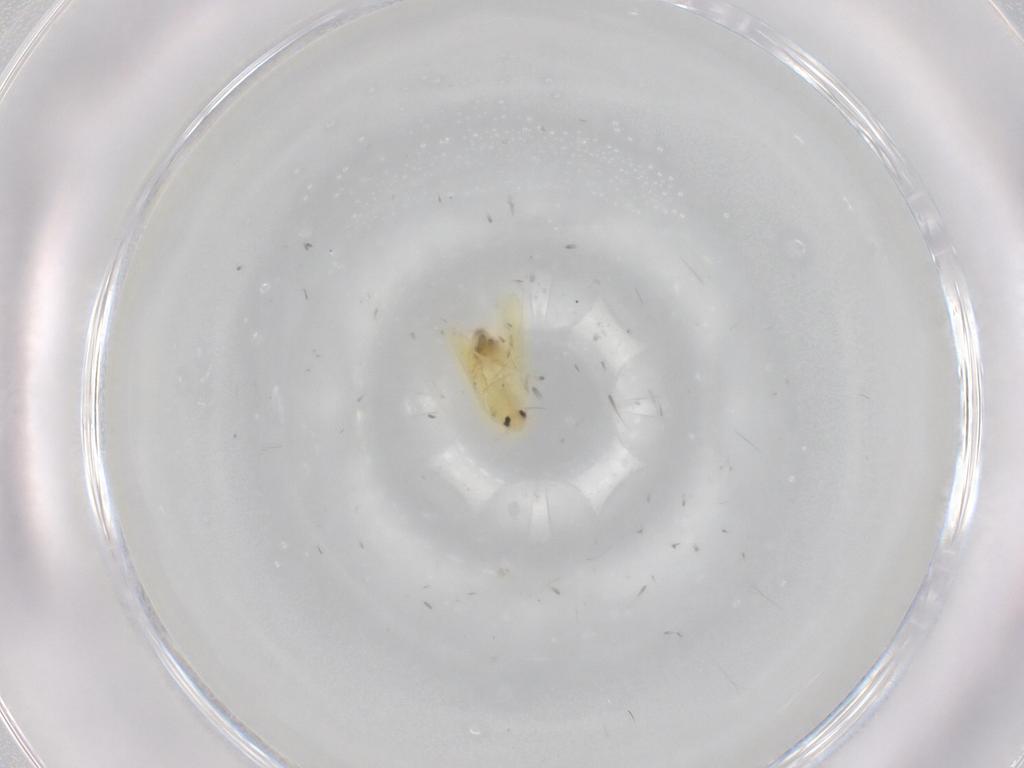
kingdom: Animalia
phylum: Arthropoda
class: Insecta
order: Hemiptera
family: Aleyrodidae
